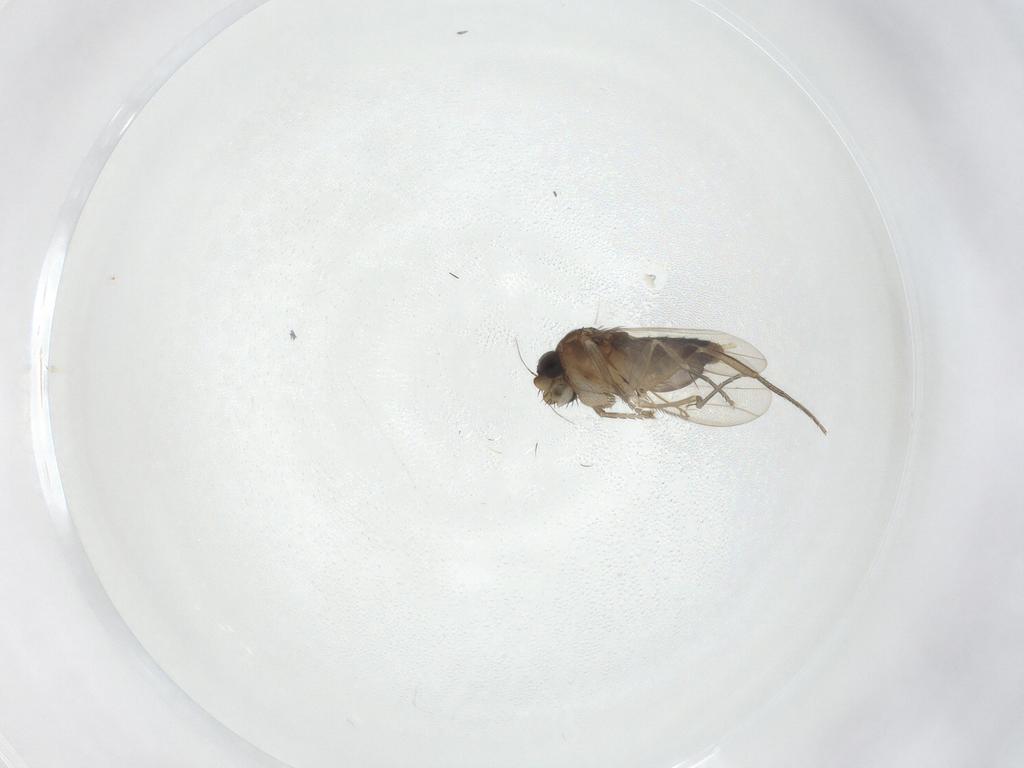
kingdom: Animalia
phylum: Arthropoda
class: Insecta
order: Diptera
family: Phoridae
